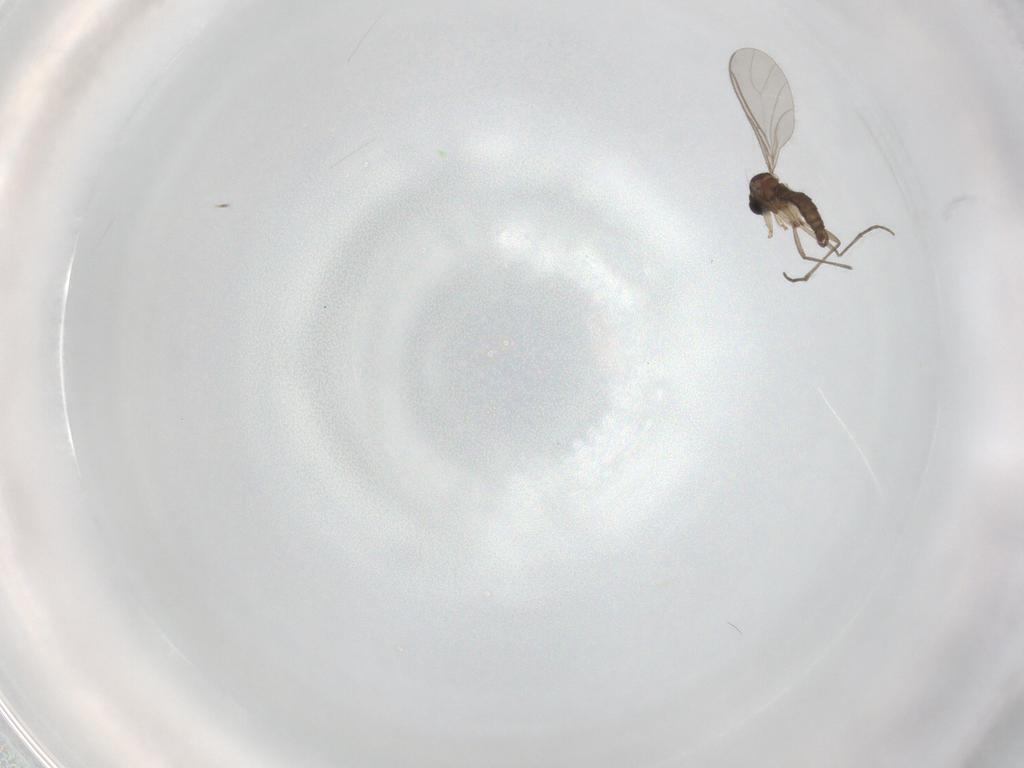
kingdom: Animalia
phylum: Arthropoda
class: Insecta
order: Diptera
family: Sciaridae
